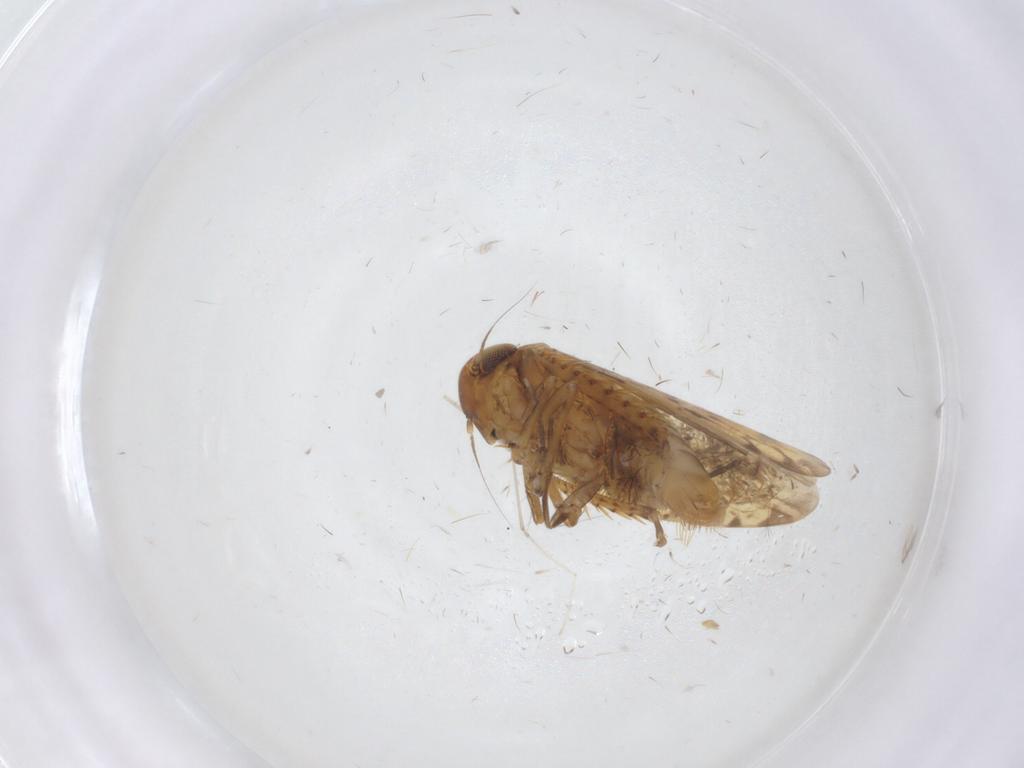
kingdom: Animalia
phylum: Arthropoda
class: Insecta
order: Hemiptera
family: Cicadellidae
